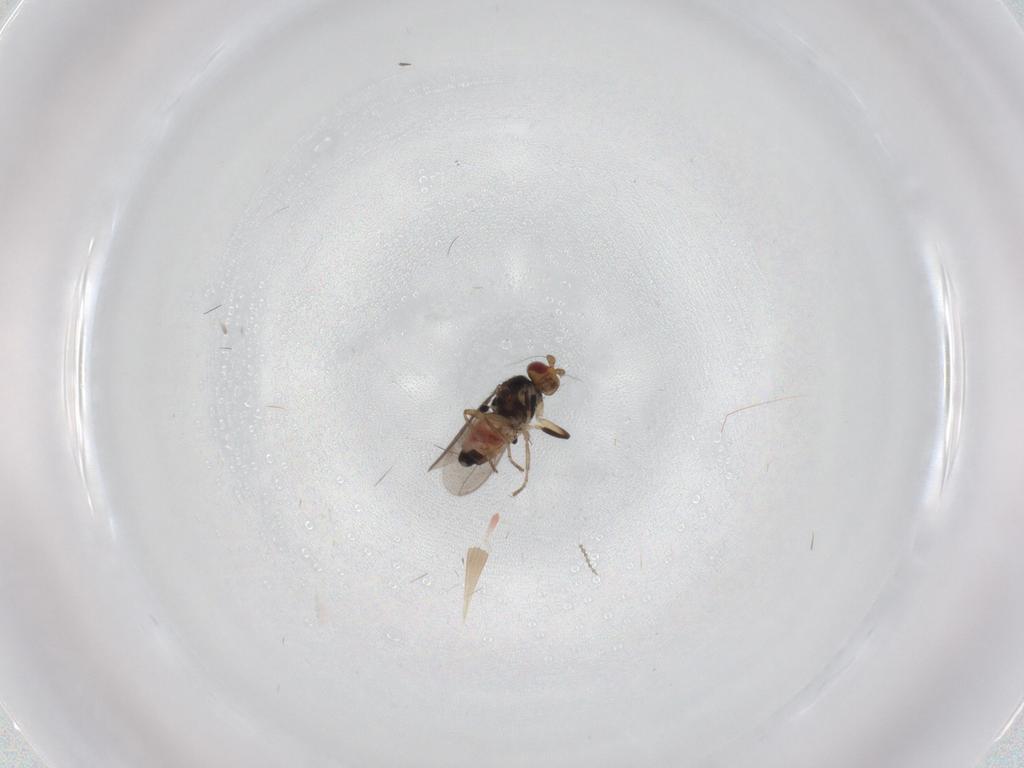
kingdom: Animalia
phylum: Arthropoda
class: Insecta
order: Diptera
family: Sphaeroceridae
